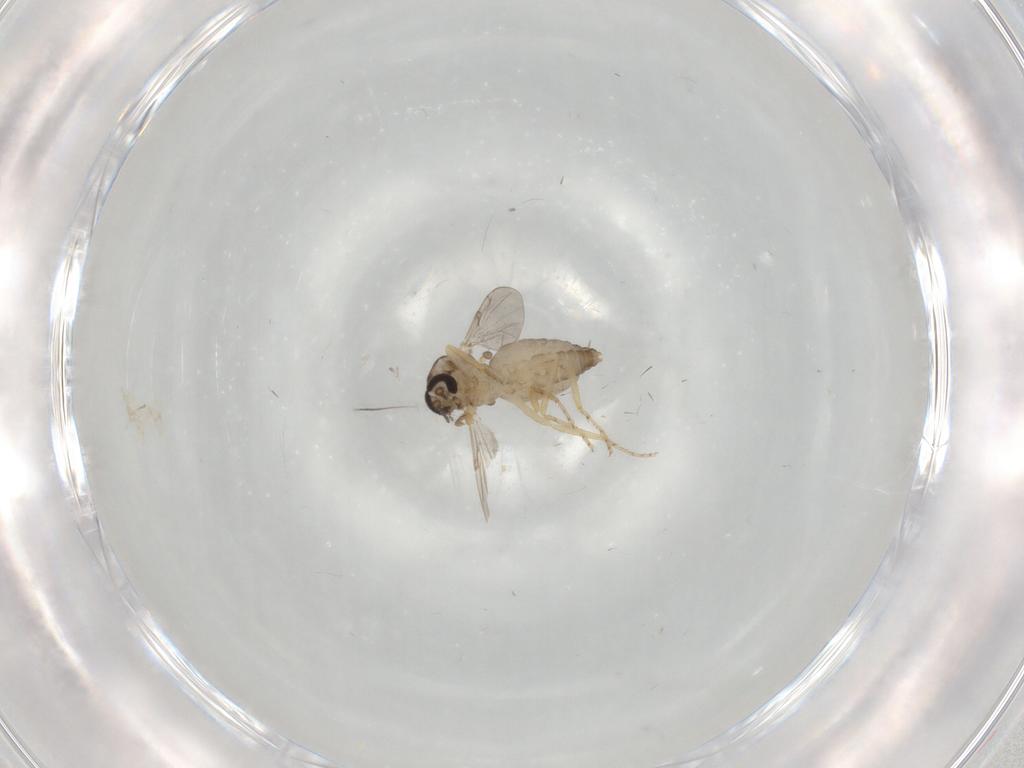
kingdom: Animalia
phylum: Arthropoda
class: Insecta
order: Diptera
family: Ceratopogonidae
